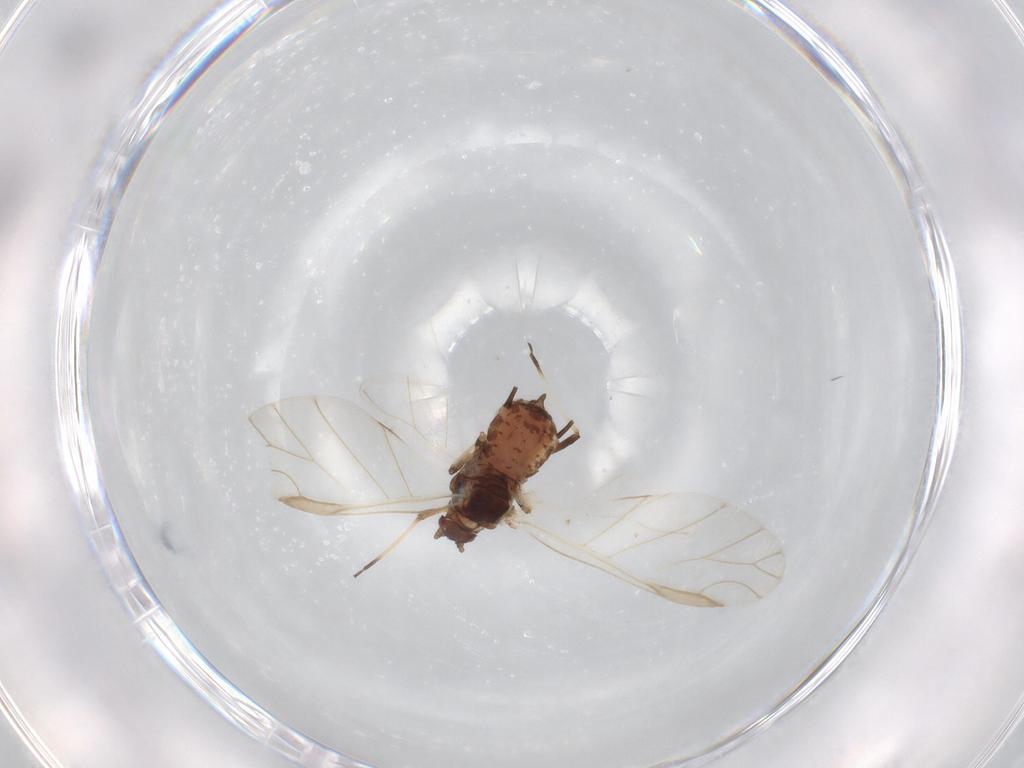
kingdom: Animalia
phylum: Arthropoda
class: Insecta
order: Hemiptera
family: Aphididae
